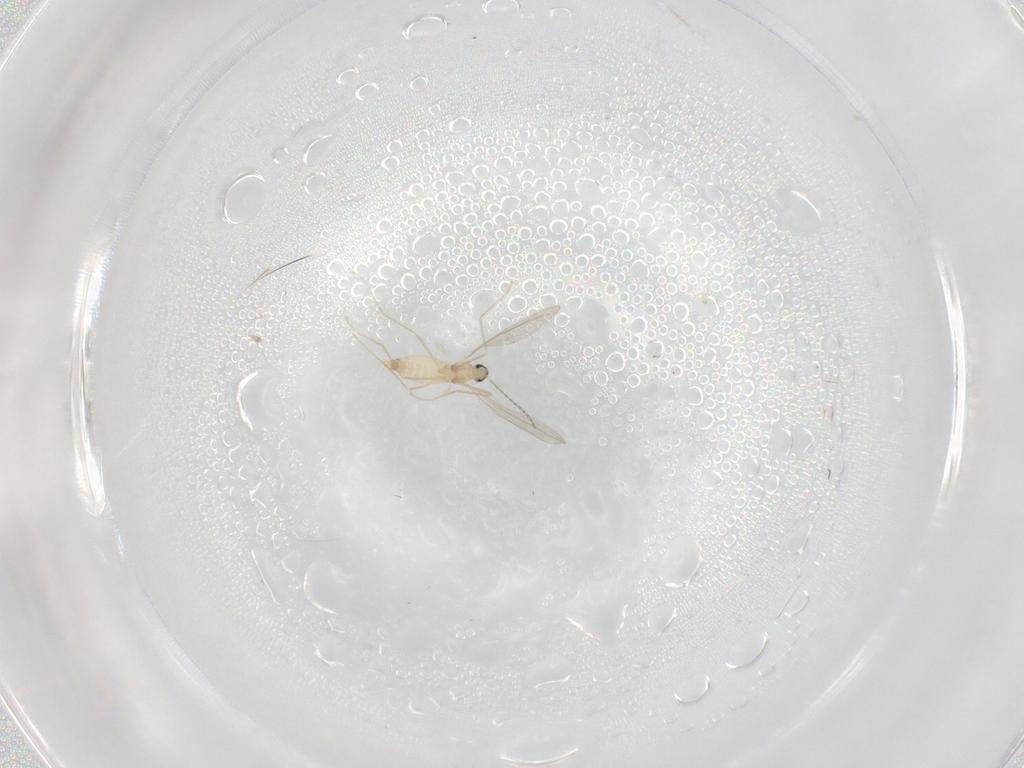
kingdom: Animalia
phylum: Arthropoda
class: Insecta
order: Diptera
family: Cecidomyiidae
